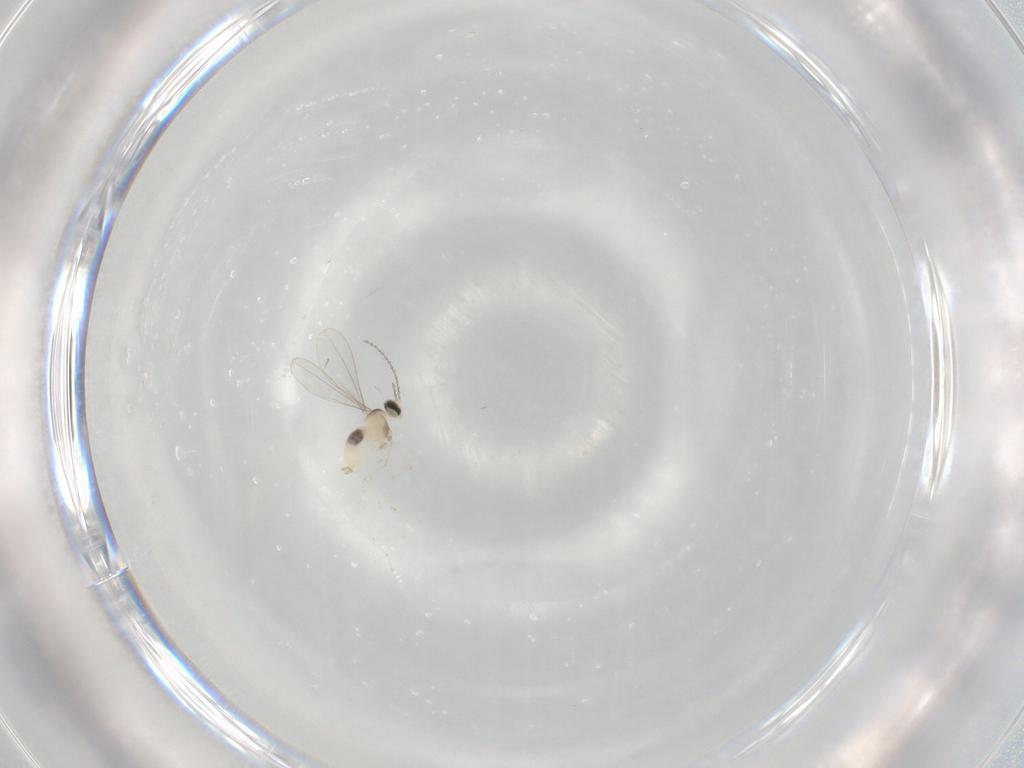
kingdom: Animalia
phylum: Arthropoda
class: Insecta
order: Diptera
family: Cecidomyiidae
